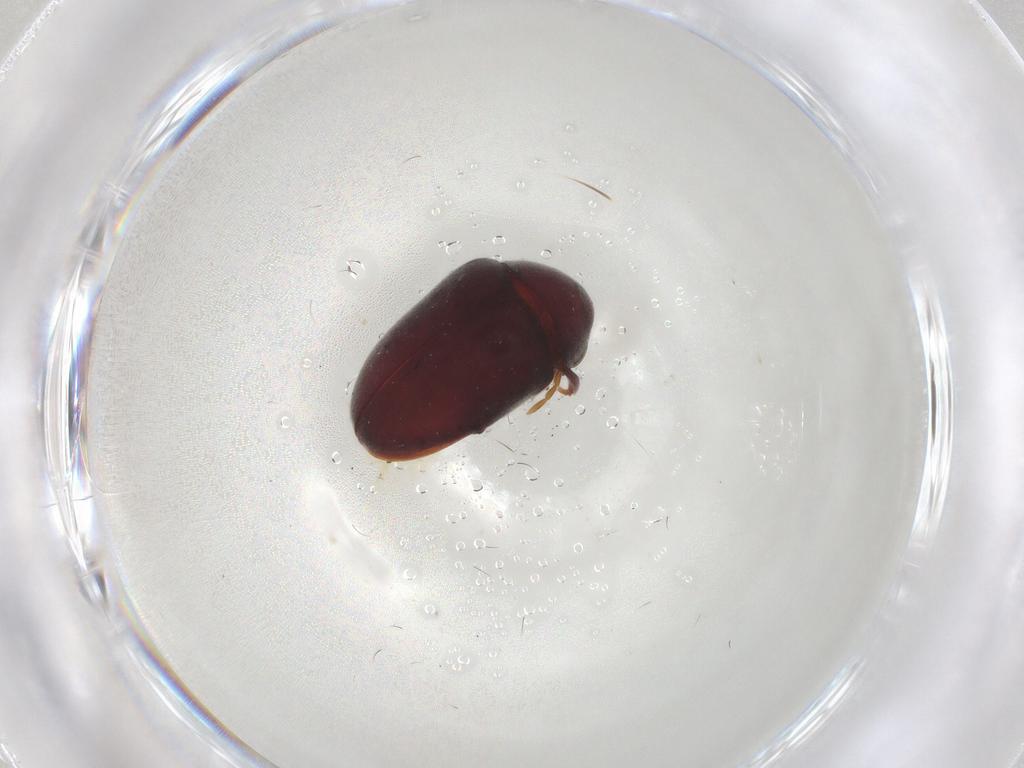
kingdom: Animalia
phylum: Arthropoda
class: Insecta
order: Coleoptera
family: Ptinidae
